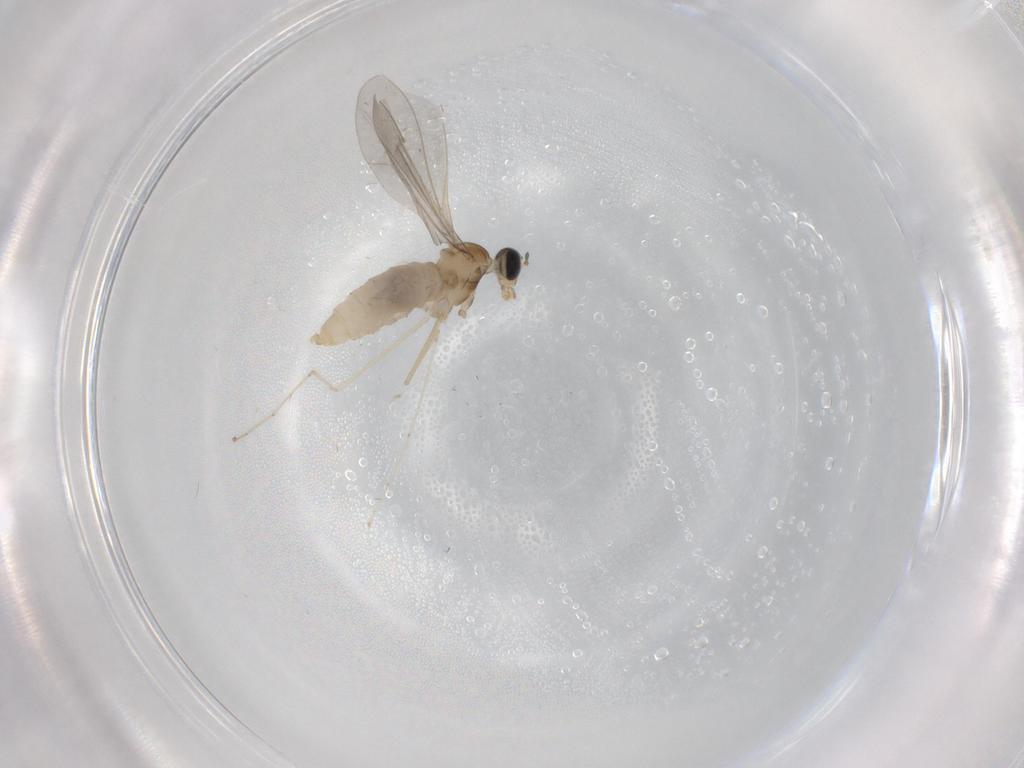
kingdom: Animalia
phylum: Arthropoda
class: Insecta
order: Diptera
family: Cecidomyiidae
